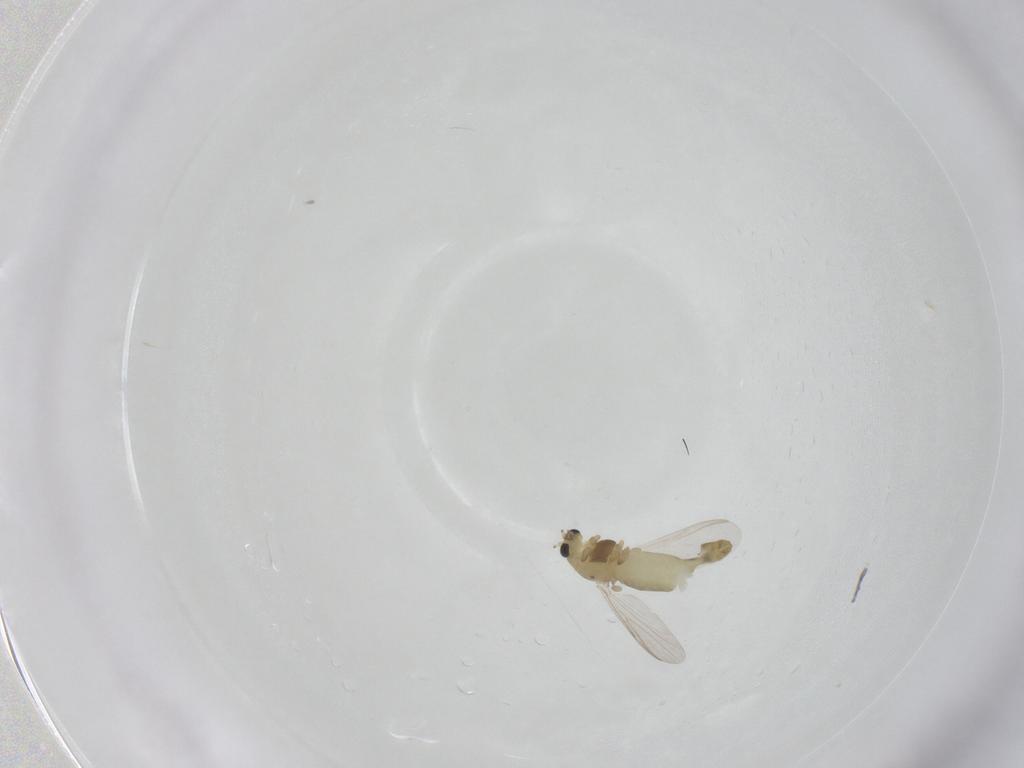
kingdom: Animalia
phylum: Arthropoda
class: Insecta
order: Diptera
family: Chironomidae
